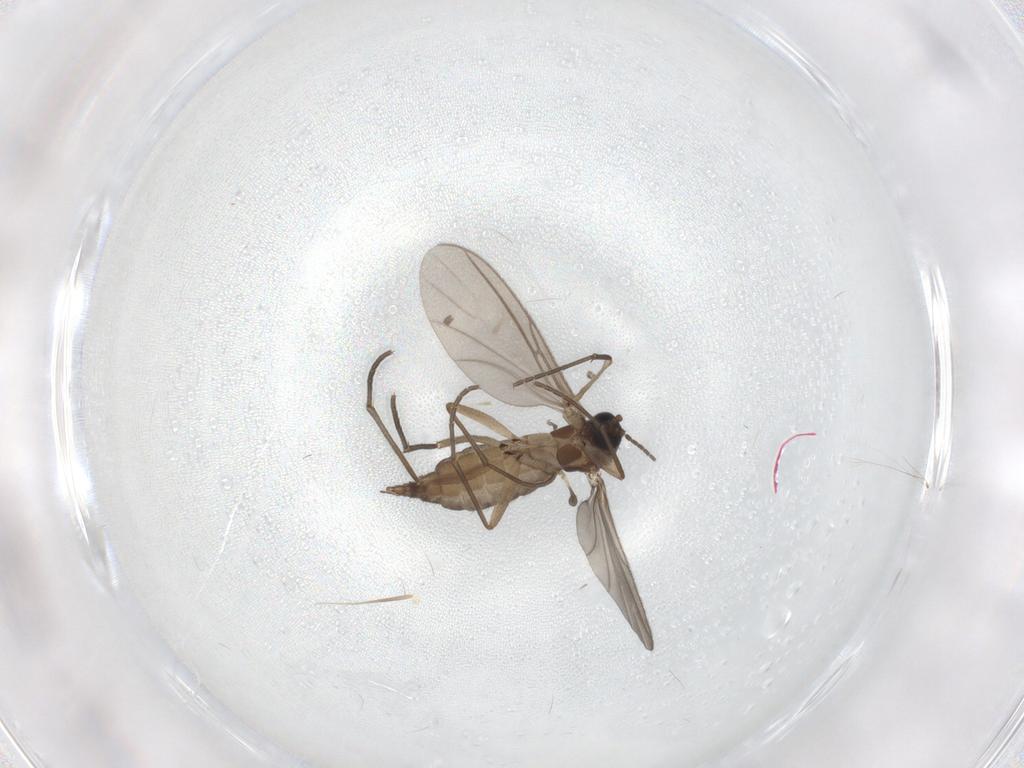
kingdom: Animalia
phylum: Arthropoda
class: Insecta
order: Diptera
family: Sciaridae
